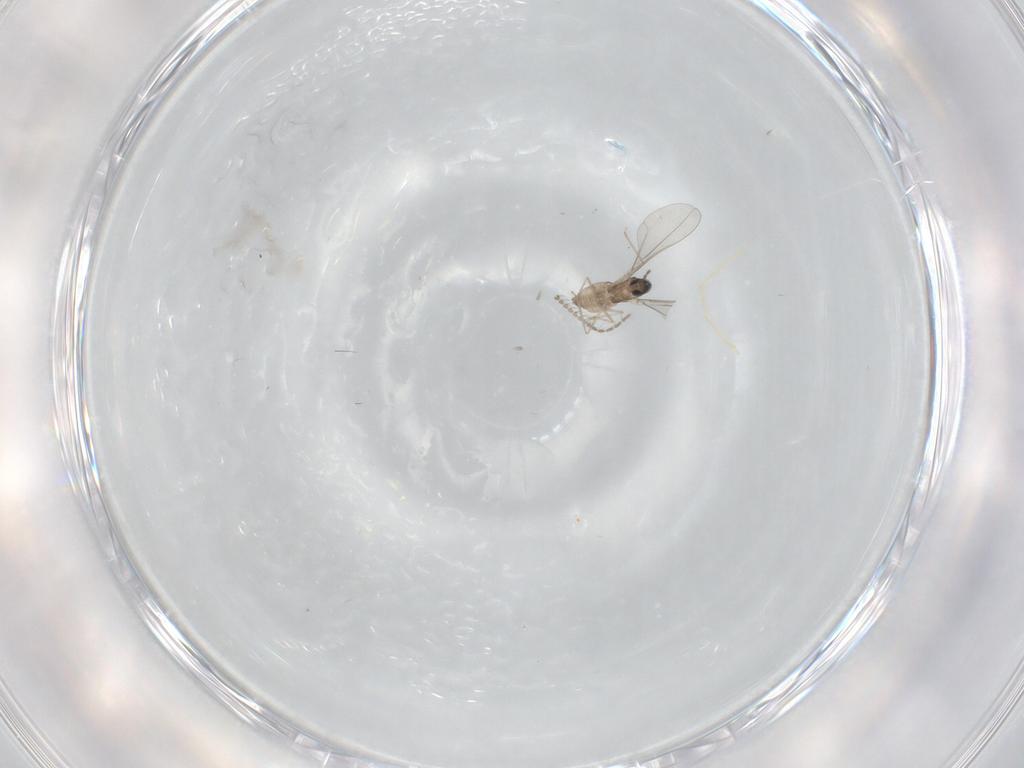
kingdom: Animalia
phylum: Arthropoda
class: Insecta
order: Diptera
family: Cecidomyiidae
